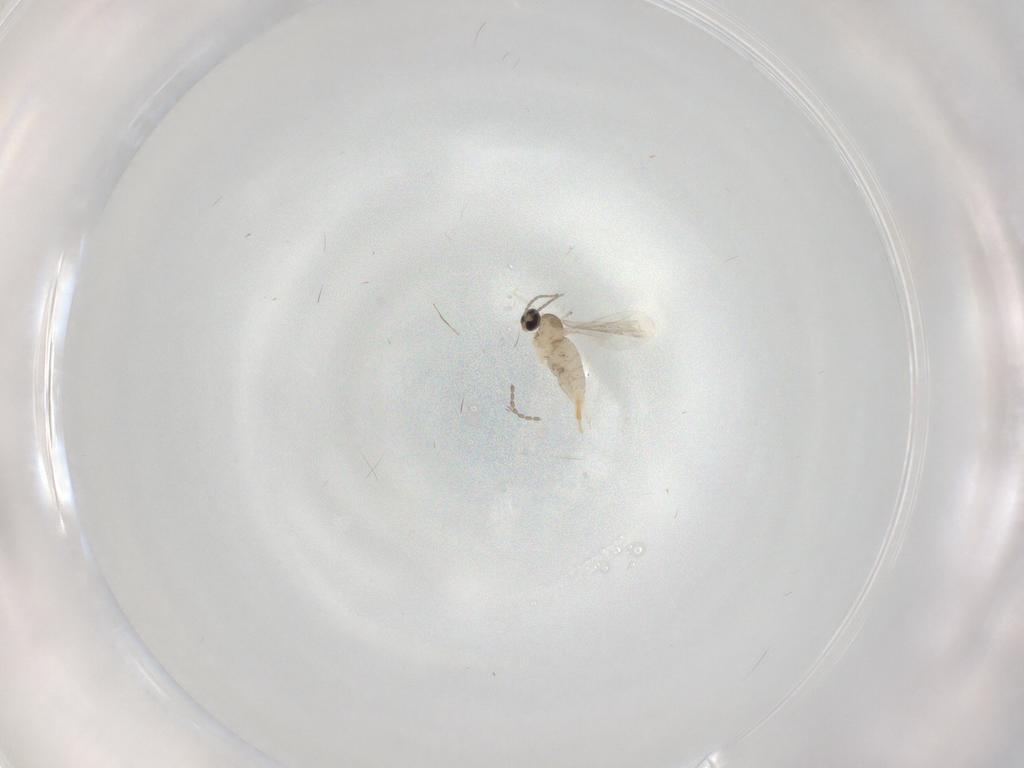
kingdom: Animalia
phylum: Arthropoda
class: Insecta
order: Diptera
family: Cecidomyiidae
